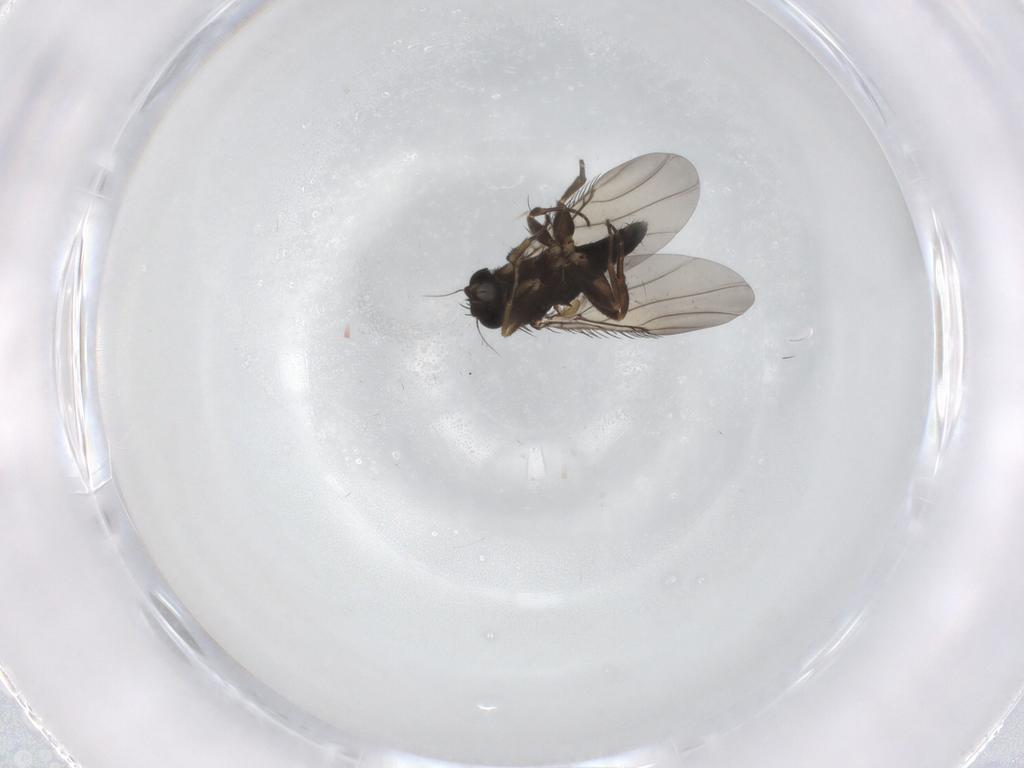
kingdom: Animalia
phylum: Arthropoda
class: Insecta
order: Diptera
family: Phoridae
